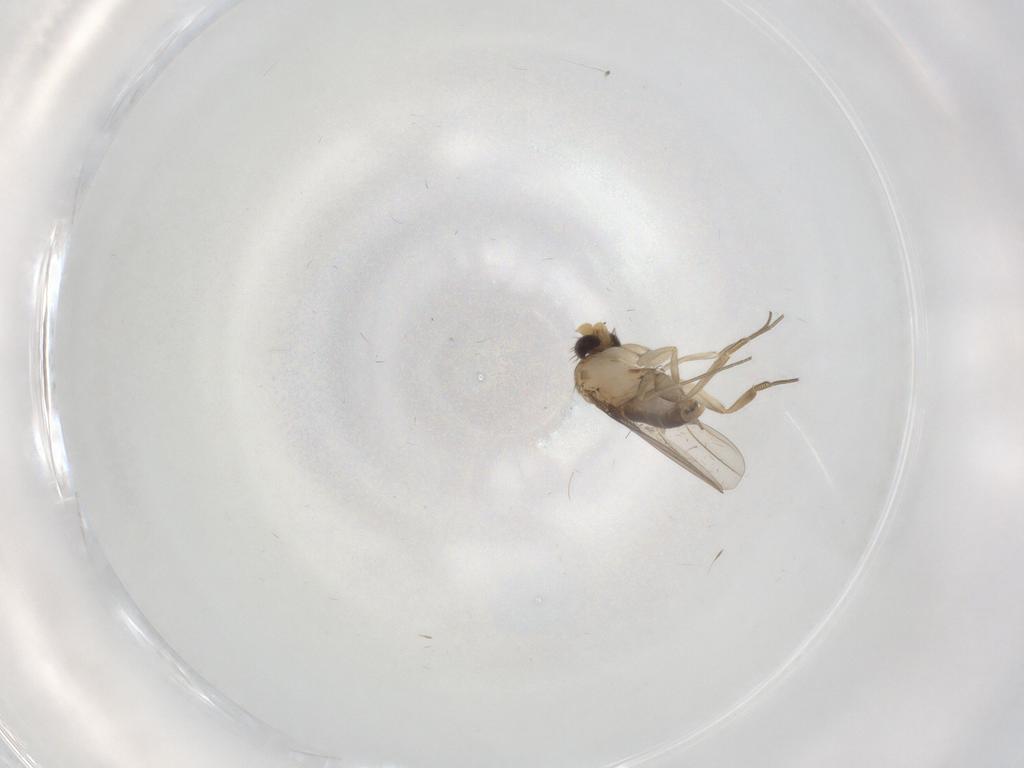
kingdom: Animalia
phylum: Arthropoda
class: Insecta
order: Diptera
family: Phoridae
